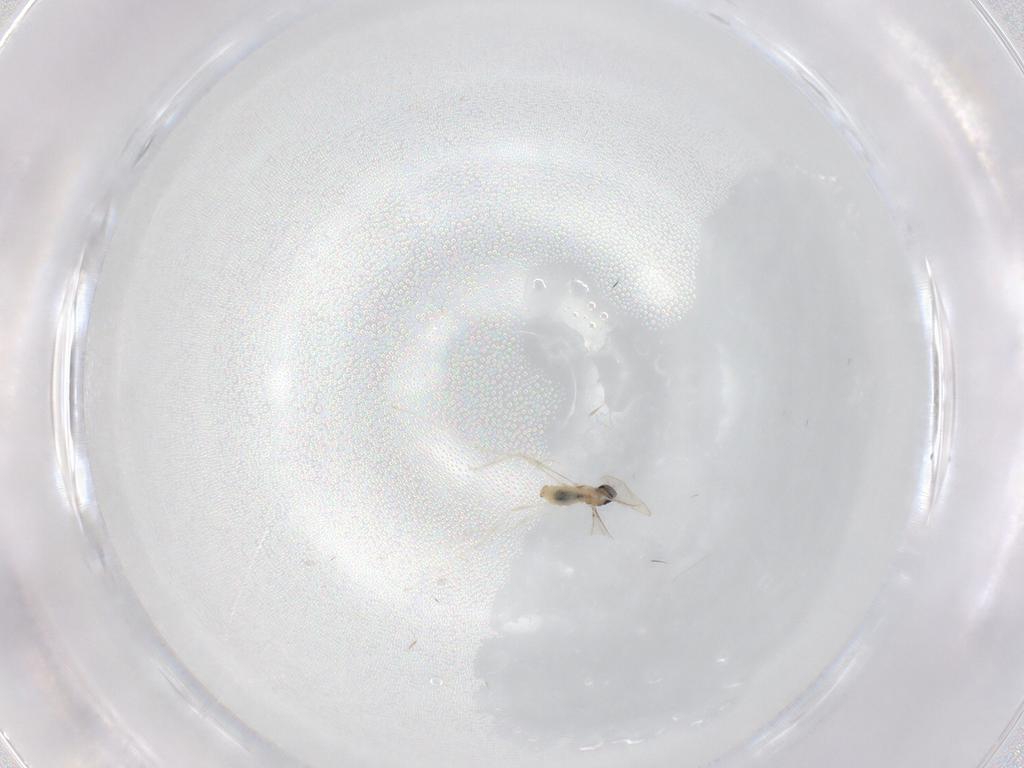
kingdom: Animalia
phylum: Arthropoda
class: Insecta
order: Diptera
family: Cecidomyiidae
